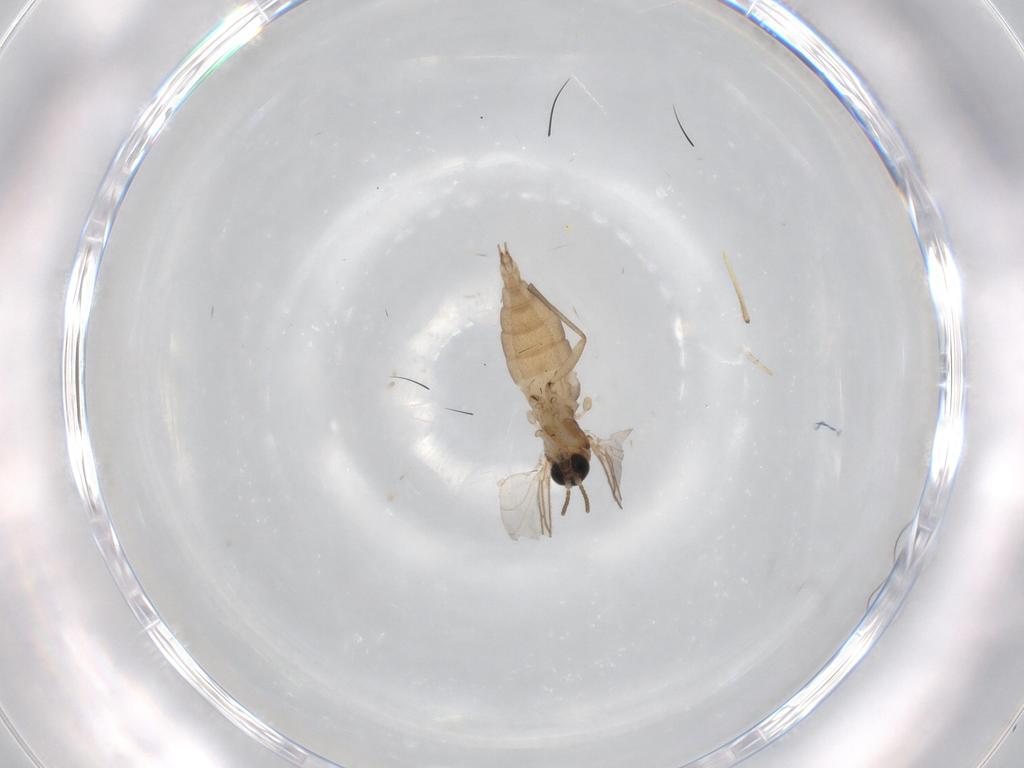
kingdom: Animalia
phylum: Arthropoda
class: Insecta
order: Diptera
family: Sciaridae
